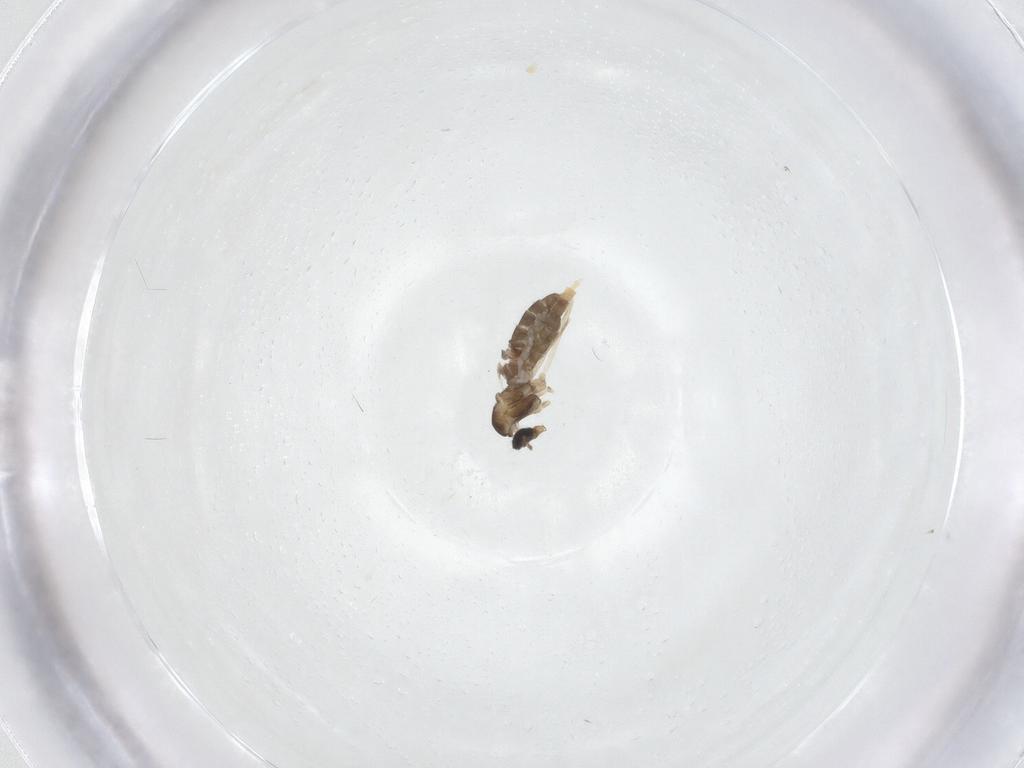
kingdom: Animalia
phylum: Arthropoda
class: Insecta
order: Diptera
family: Cecidomyiidae
